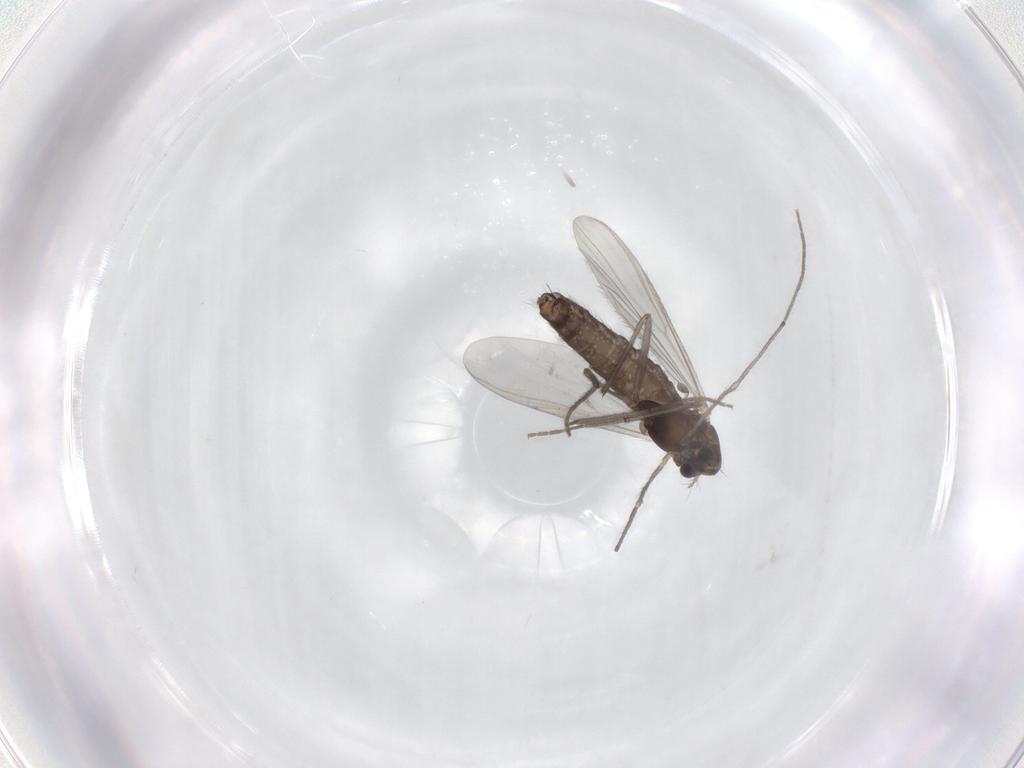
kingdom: Animalia
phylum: Arthropoda
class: Insecta
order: Diptera
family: Chironomidae
